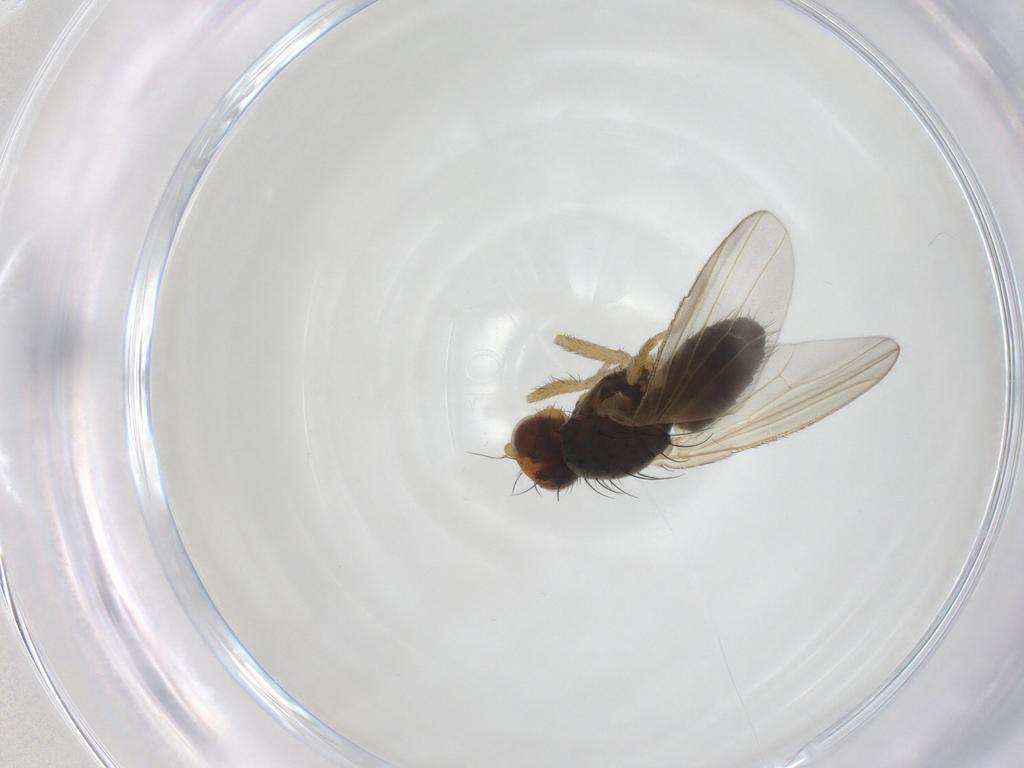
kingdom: Animalia
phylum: Arthropoda
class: Insecta
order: Diptera
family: Heleomyzidae
